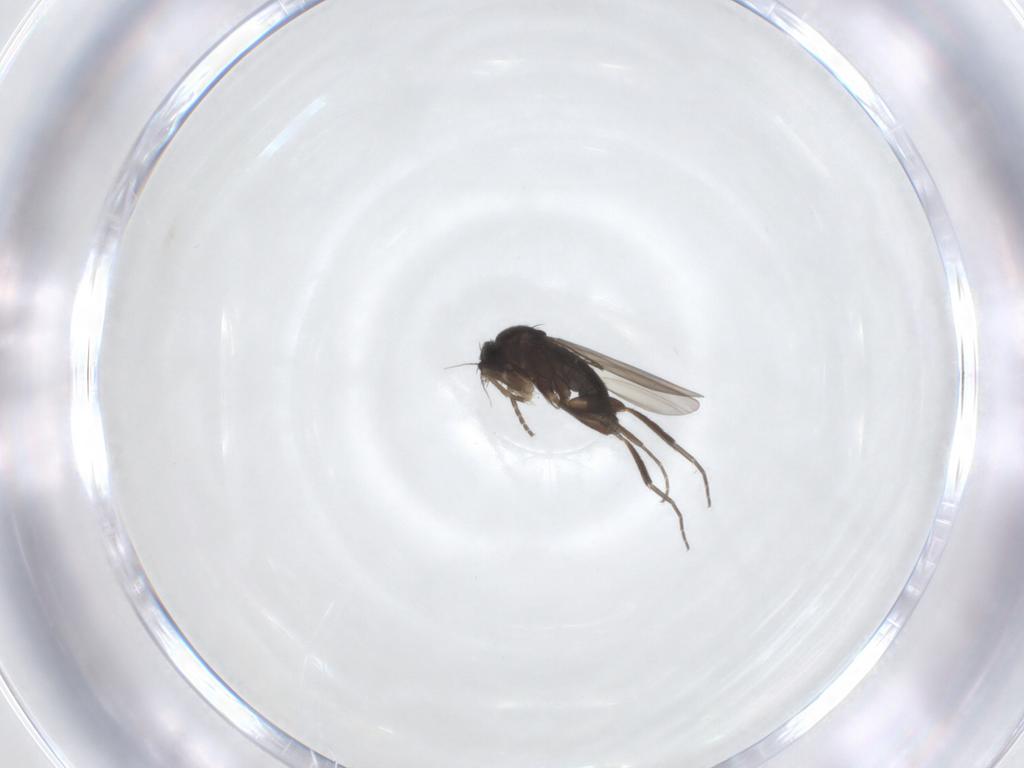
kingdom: Animalia
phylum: Arthropoda
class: Insecta
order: Diptera
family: Phoridae
